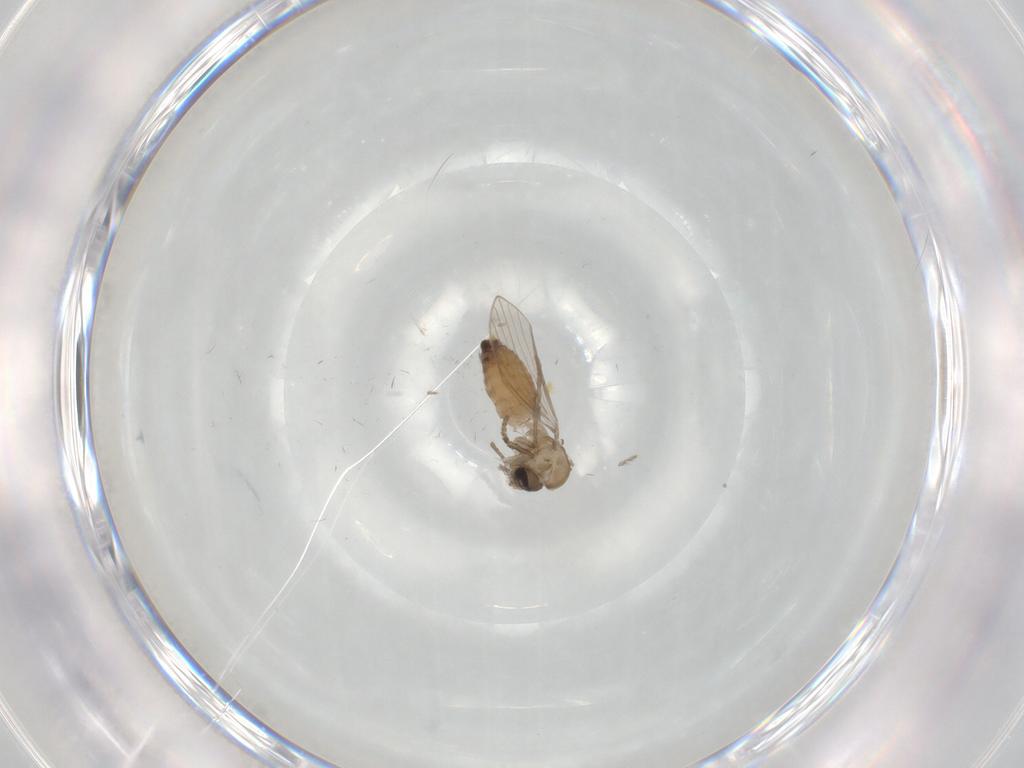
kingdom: Animalia
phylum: Arthropoda
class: Insecta
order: Diptera
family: Psychodidae
